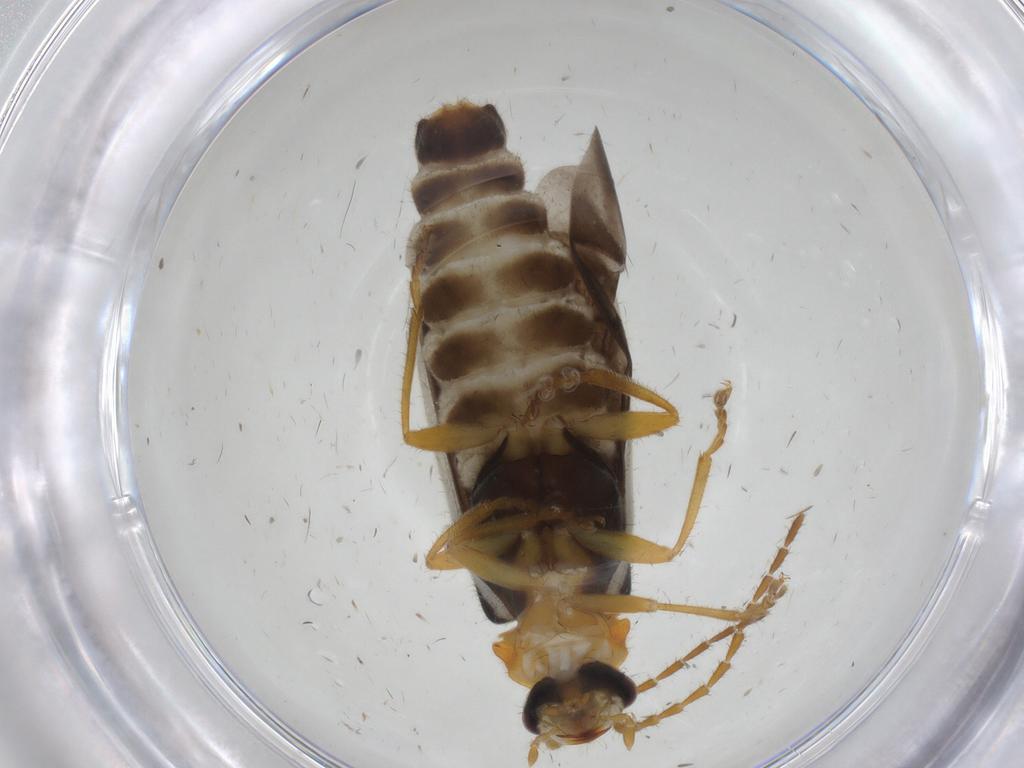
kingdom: Animalia
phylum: Arthropoda
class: Insecta
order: Coleoptera
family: Cantharidae
